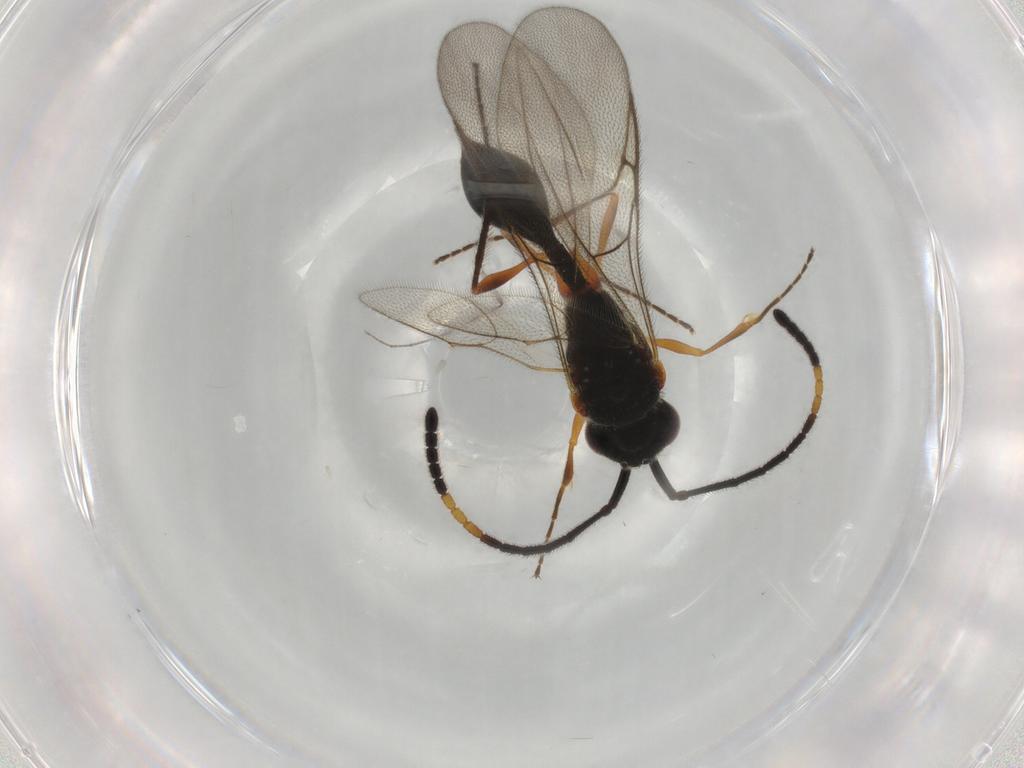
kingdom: Animalia
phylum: Arthropoda
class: Insecta
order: Hymenoptera
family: Diapriidae
